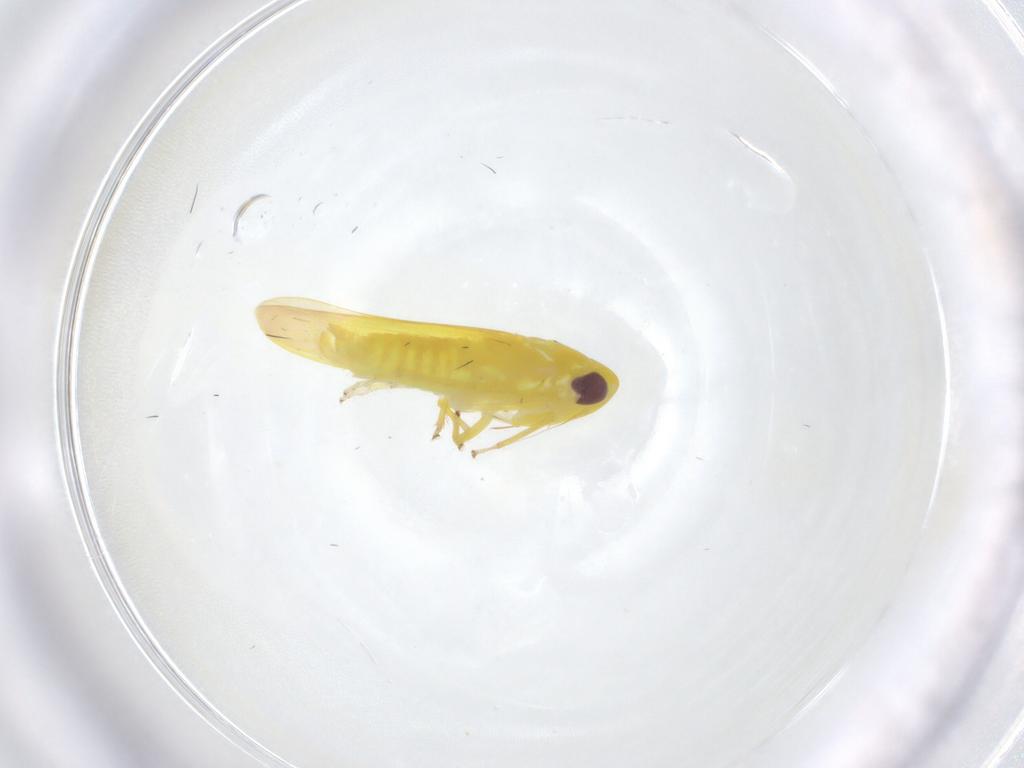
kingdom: Animalia
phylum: Arthropoda
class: Insecta
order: Hemiptera
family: Cicadellidae
